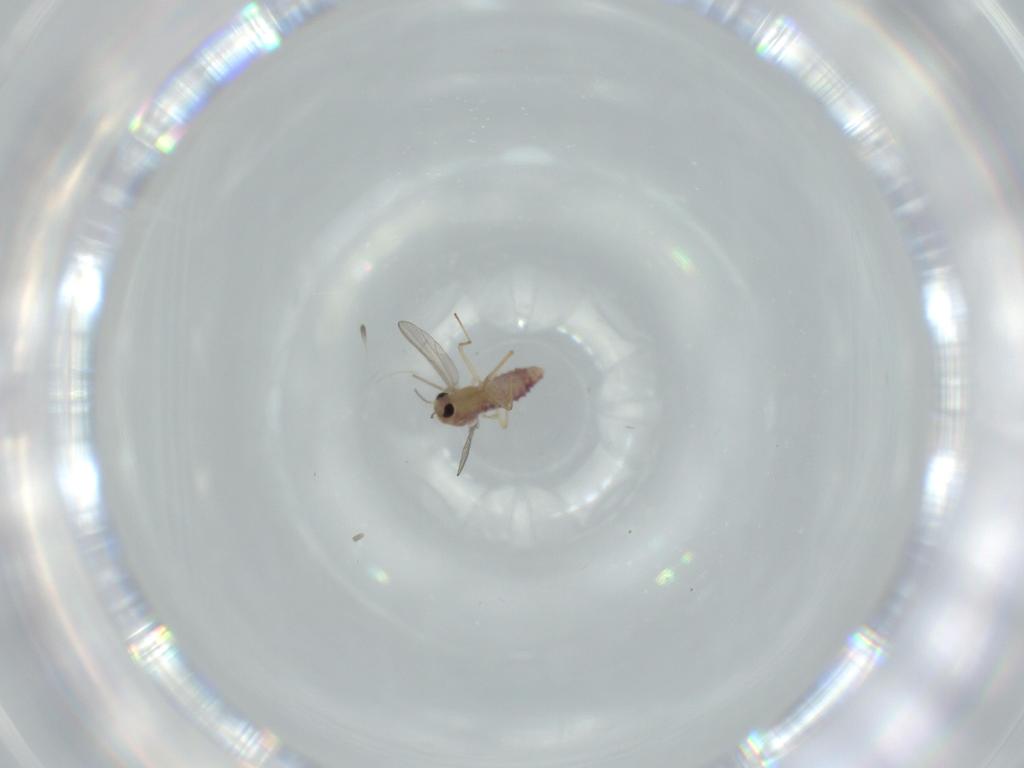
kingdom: Animalia
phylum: Arthropoda
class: Insecta
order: Diptera
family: Chironomidae
